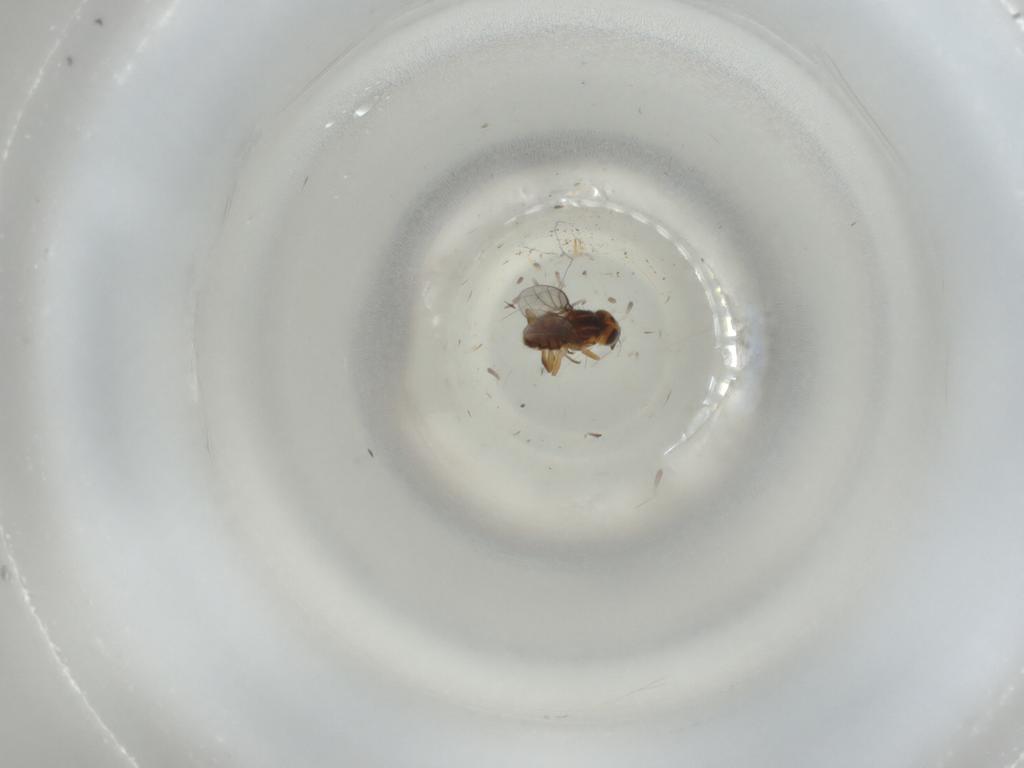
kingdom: Animalia
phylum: Arthropoda
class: Insecta
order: Diptera
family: Chloropidae
